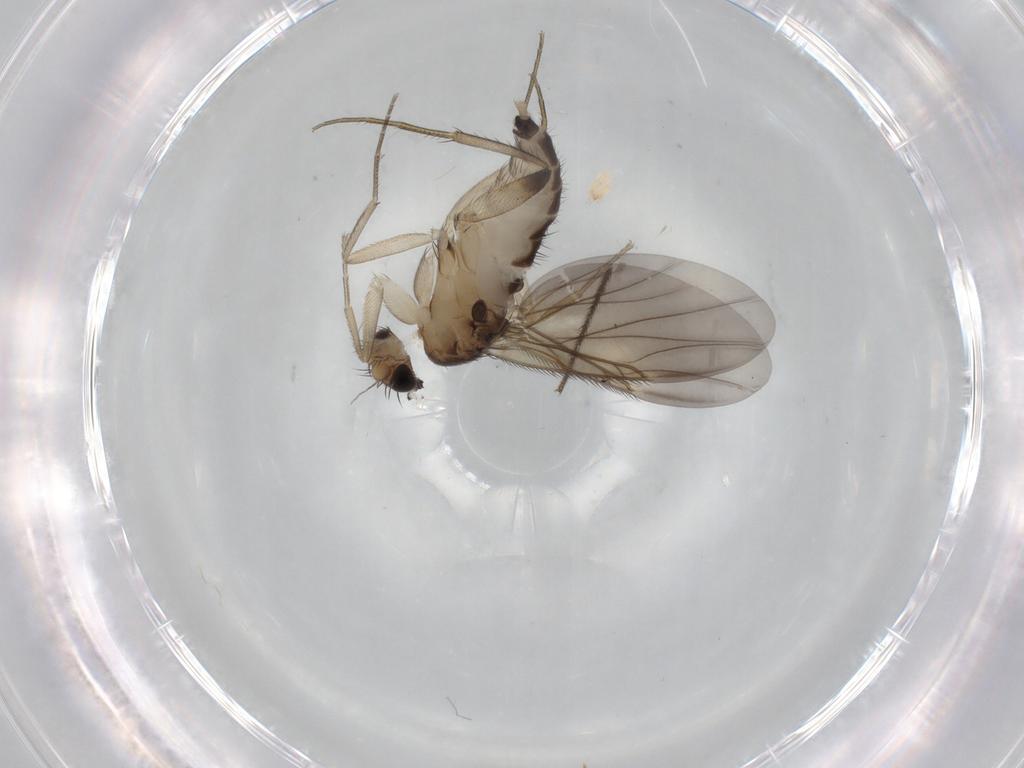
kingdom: Animalia
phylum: Arthropoda
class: Insecta
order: Diptera
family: Phoridae
